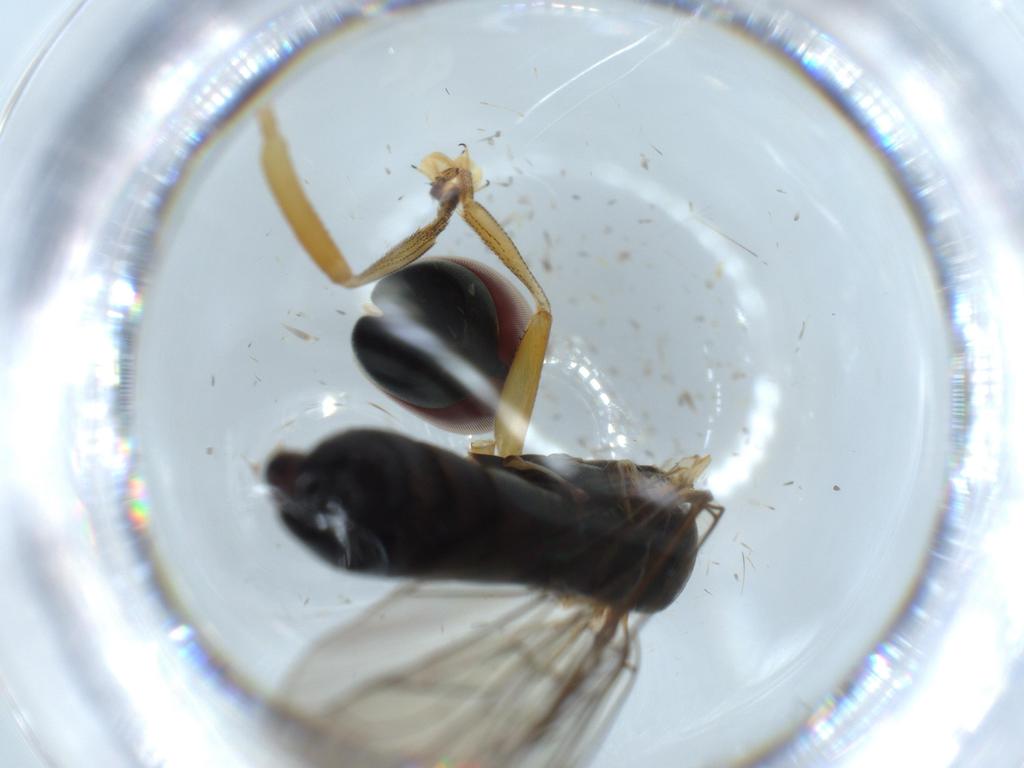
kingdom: Animalia
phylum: Arthropoda
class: Insecta
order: Diptera
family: Pipunculidae
